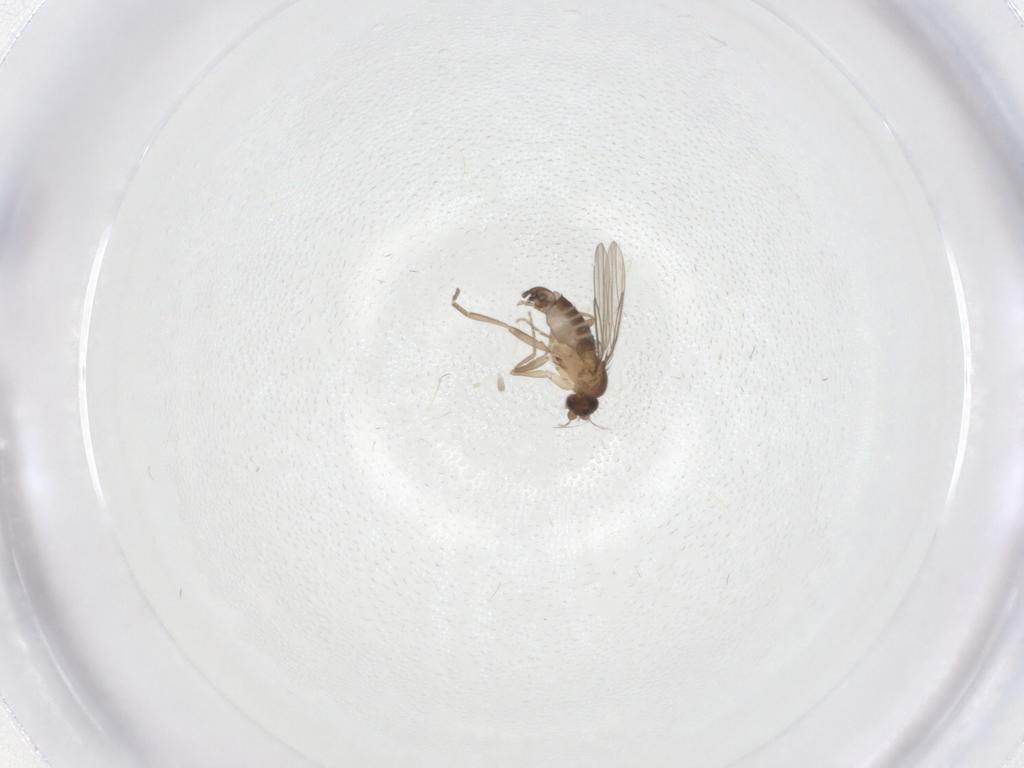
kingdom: Animalia
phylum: Arthropoda
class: Insecta
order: Diptera
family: Phoridae
